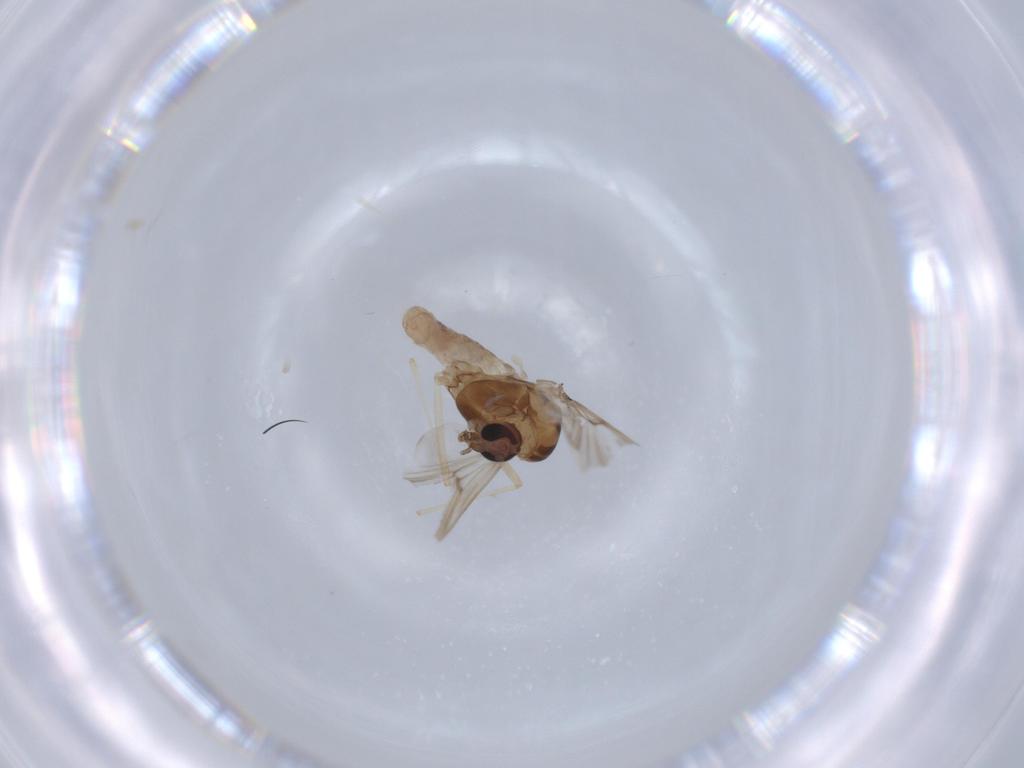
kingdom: Animalia
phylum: Arthropoda
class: Insecta
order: Diptera
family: Chironomidae
